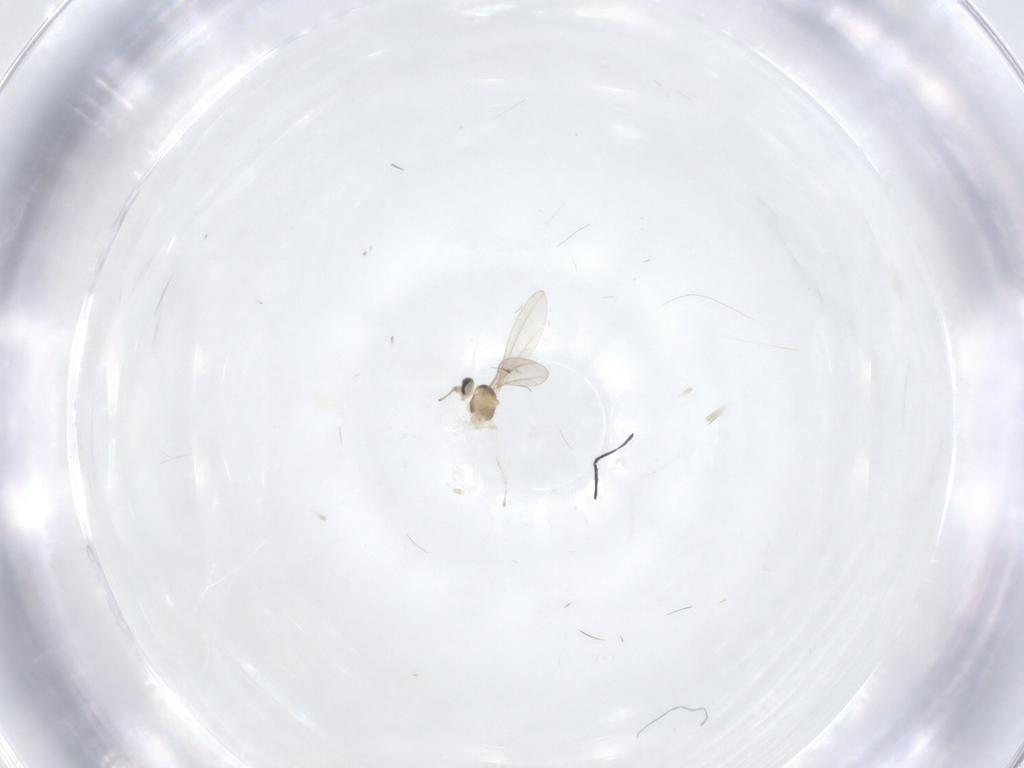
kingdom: Animalia
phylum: Arthropoda
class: Insecta
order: Diptera
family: Cecidomyiidae
